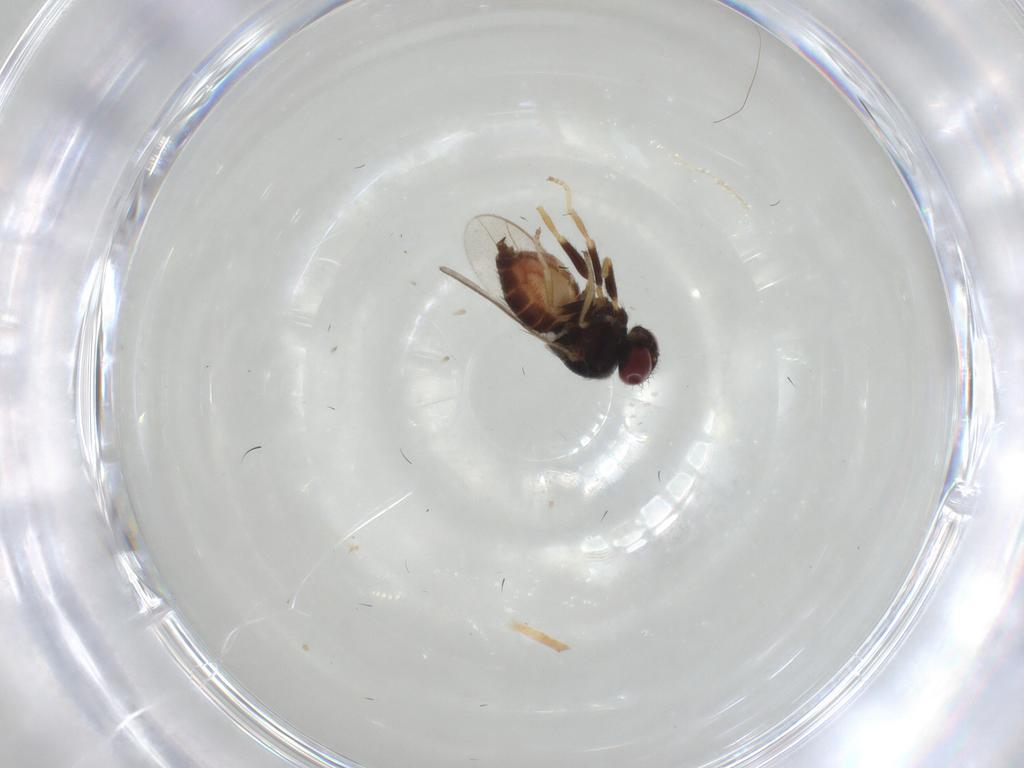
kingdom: Animalia
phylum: Arthropoda
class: Insecta
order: Diptera
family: Chloropidae
